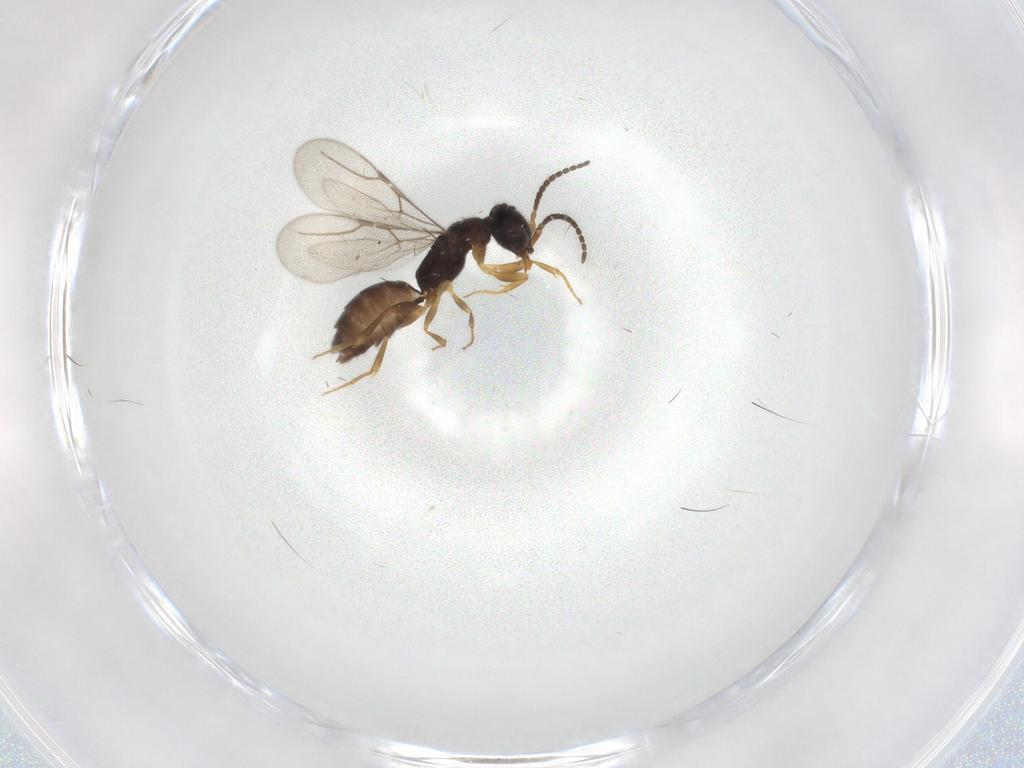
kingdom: Animalia
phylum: Arthropoda
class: Insecta
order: Hymenoptera
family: Bethylidae
